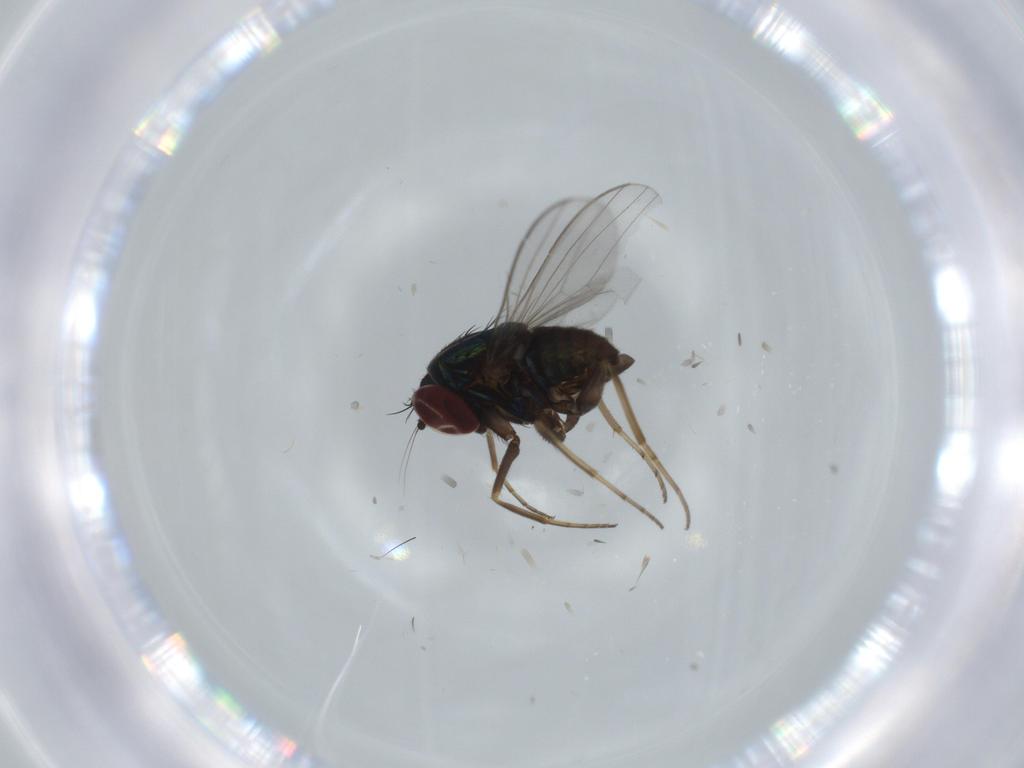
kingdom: Animalia
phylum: Arthropoda
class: Insecta
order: Diptera
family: Dolichopodidae
